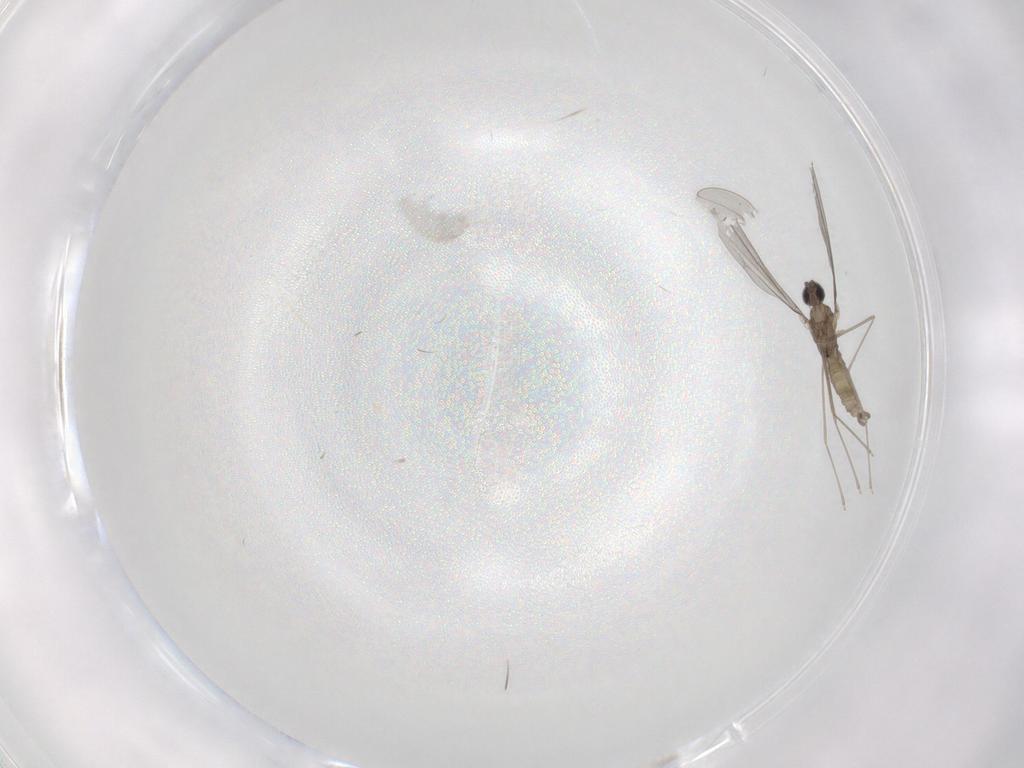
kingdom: Animalia
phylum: Arthropoda
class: Insecta
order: Diptera
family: Cecidomyiidae
